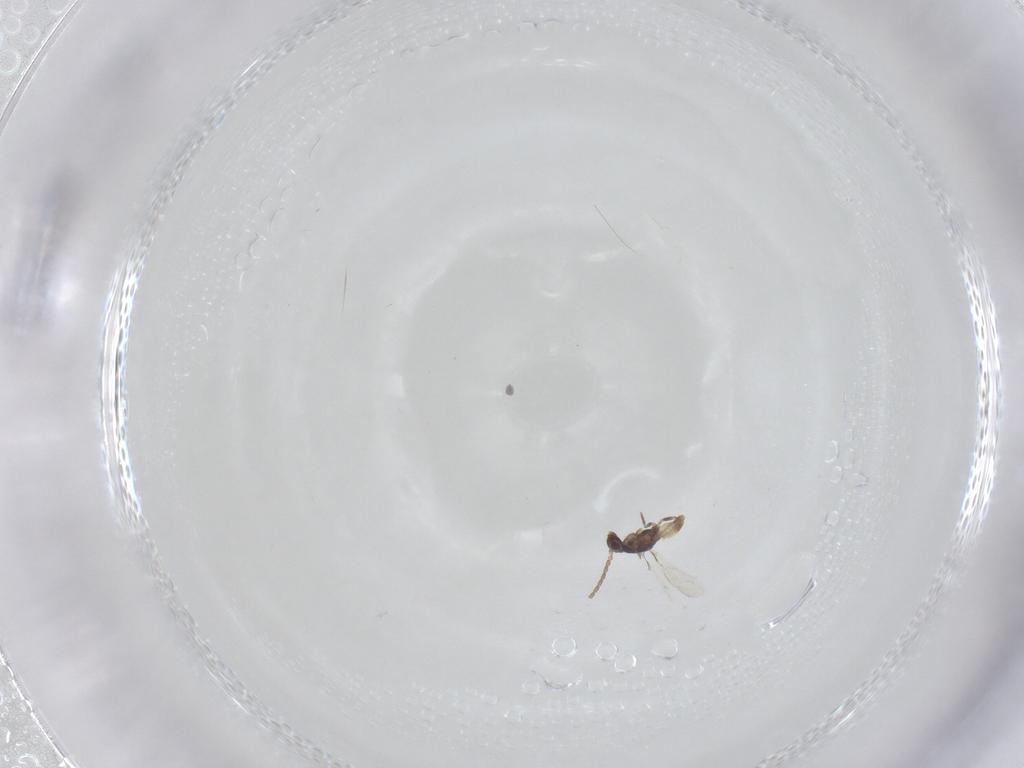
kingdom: Animalia
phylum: Arthropoda
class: Insecta
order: Hymenoptera
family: Mymaridae
